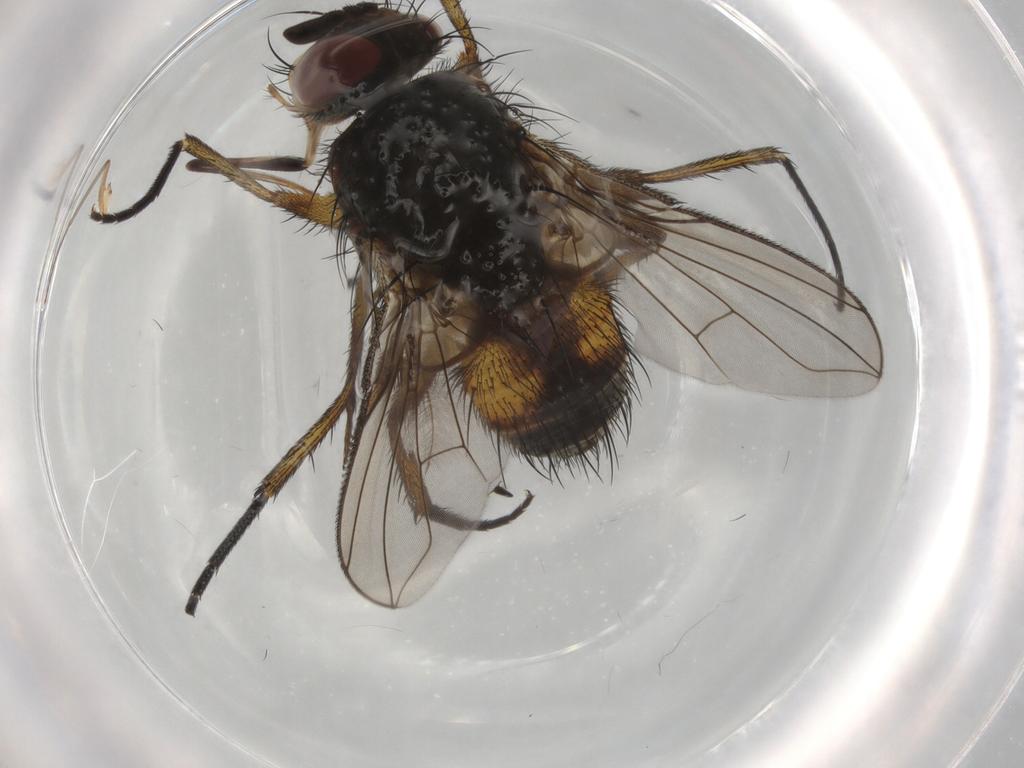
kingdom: Animalia
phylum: Arthropoda
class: Insecta
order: Diptera
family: Tachinidae
